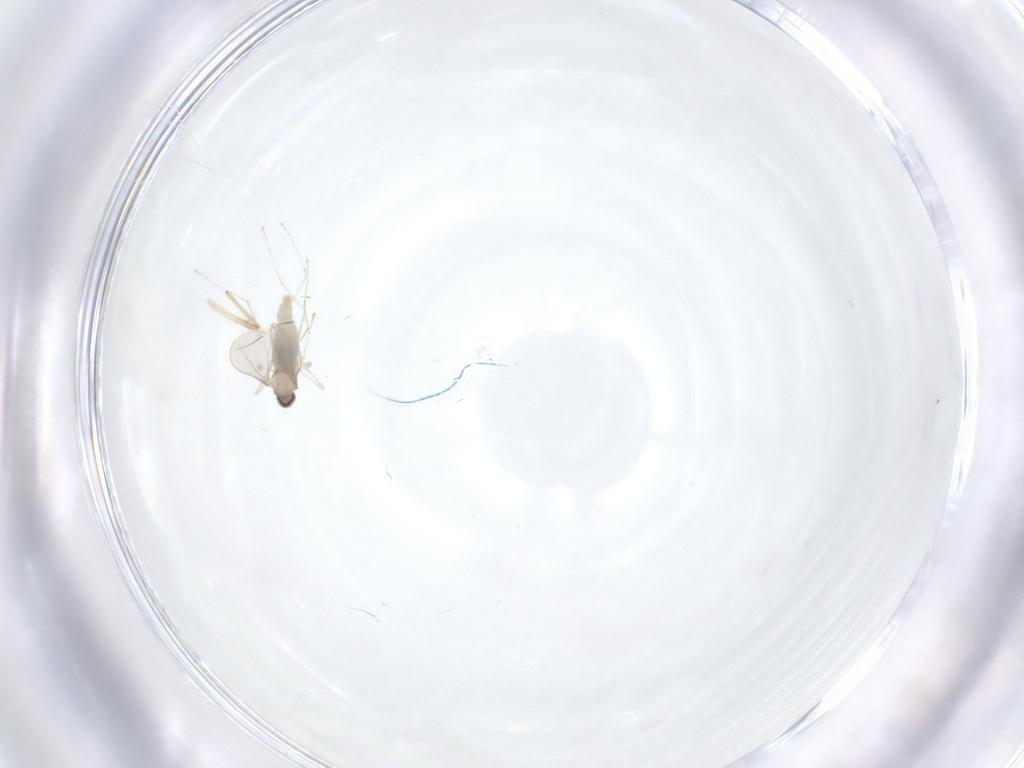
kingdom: Animalia
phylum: Arthropoda
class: Insecta
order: Diptera
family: Cecidomyiidae
